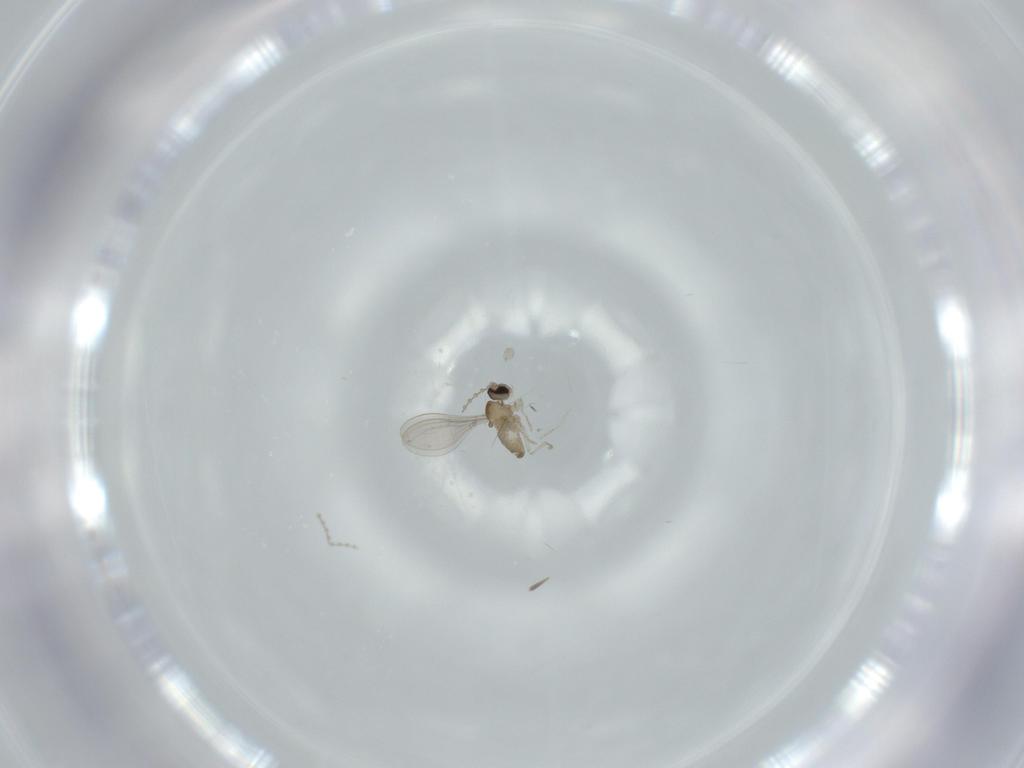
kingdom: Animalia
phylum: Arthropoda
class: Insecta
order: Diptera
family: Cecidomyiidae
